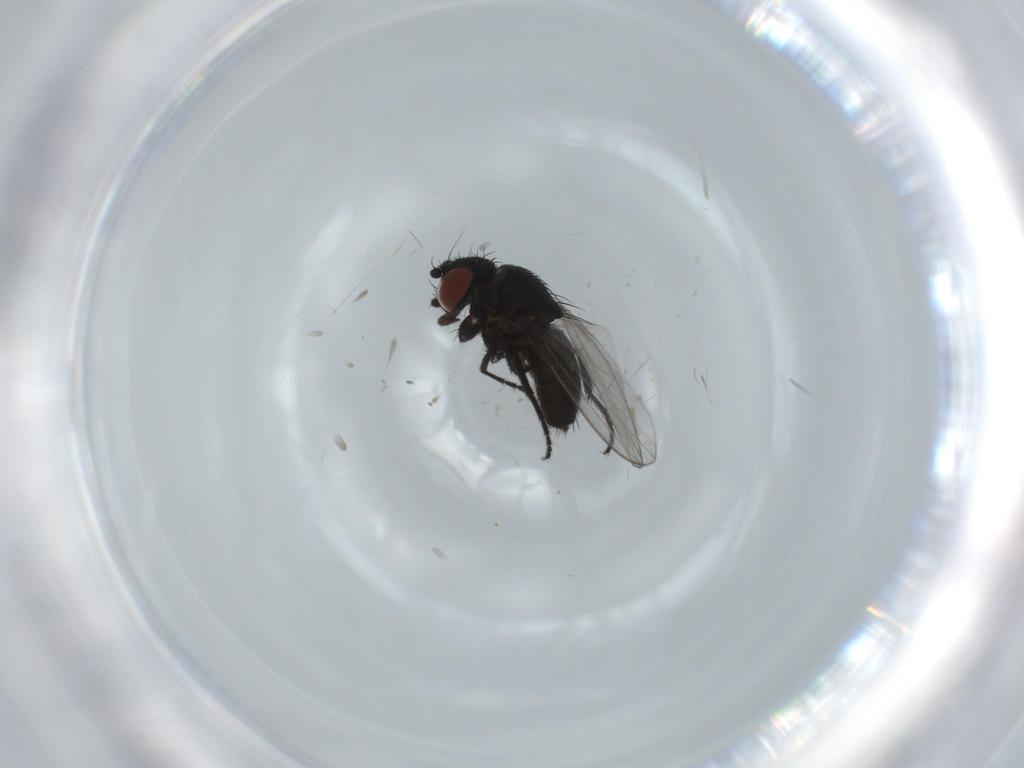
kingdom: Animalia
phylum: Arthropoda
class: Insecta
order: Diptera
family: Milichiidae
